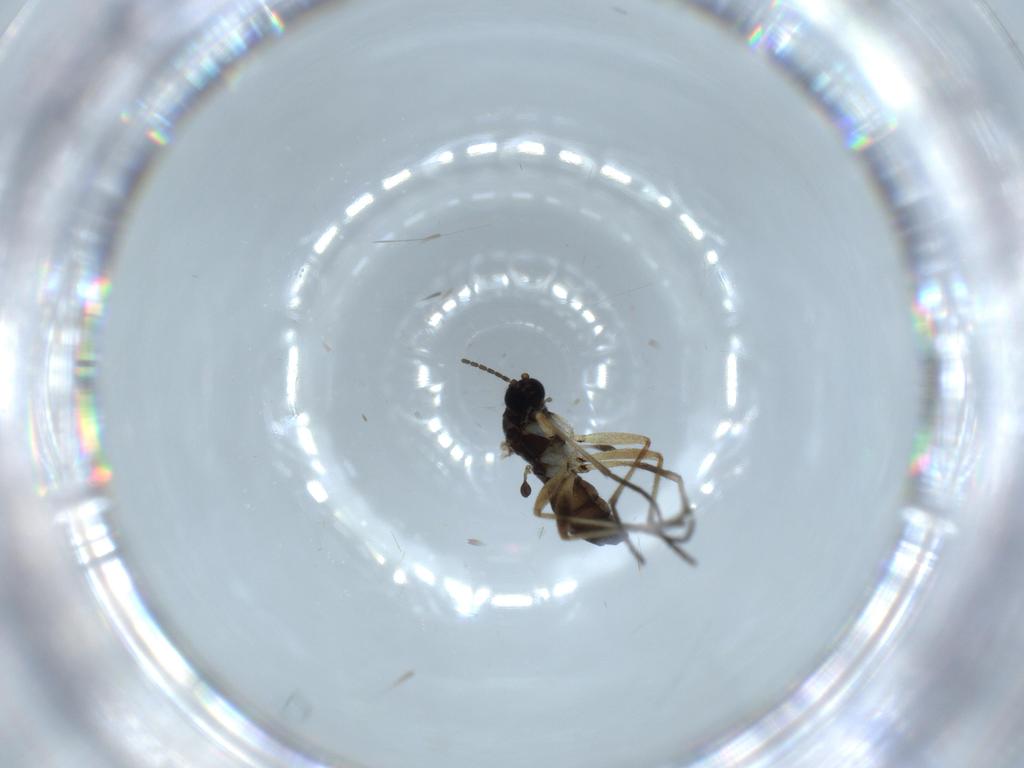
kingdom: Animalia
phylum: Arthropoda
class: Insecta
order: Diptera
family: Sciaridae
